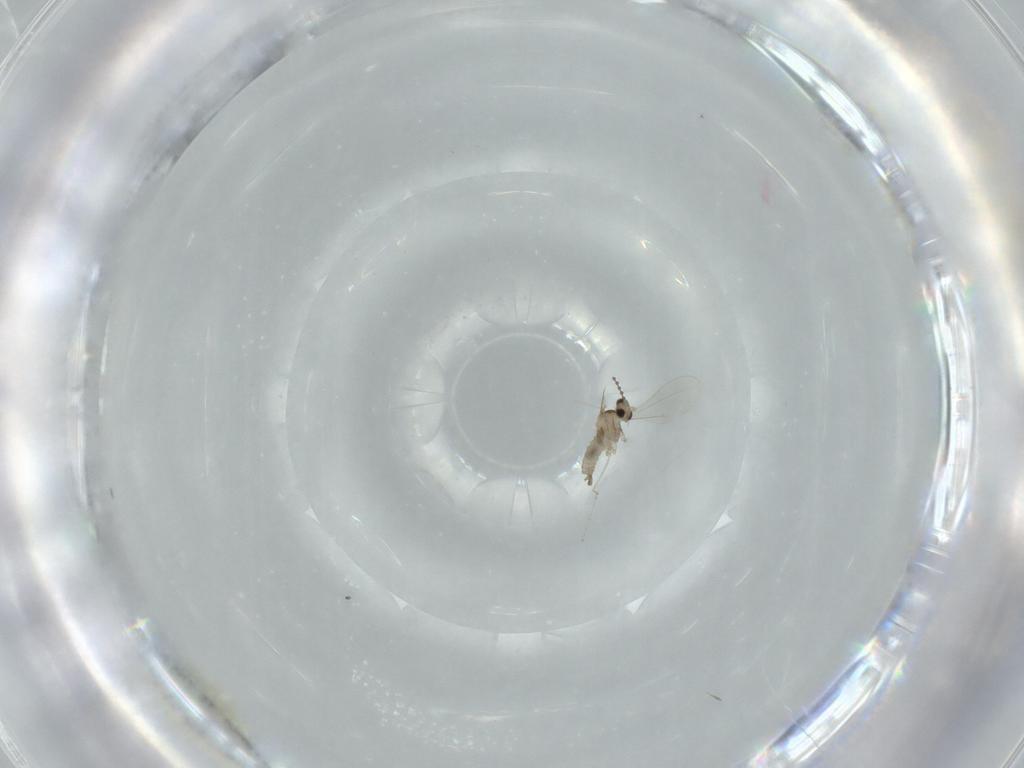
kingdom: Animalia
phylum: Arthropoda
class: Insecta
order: Diptera
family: Cecidomyiidae
